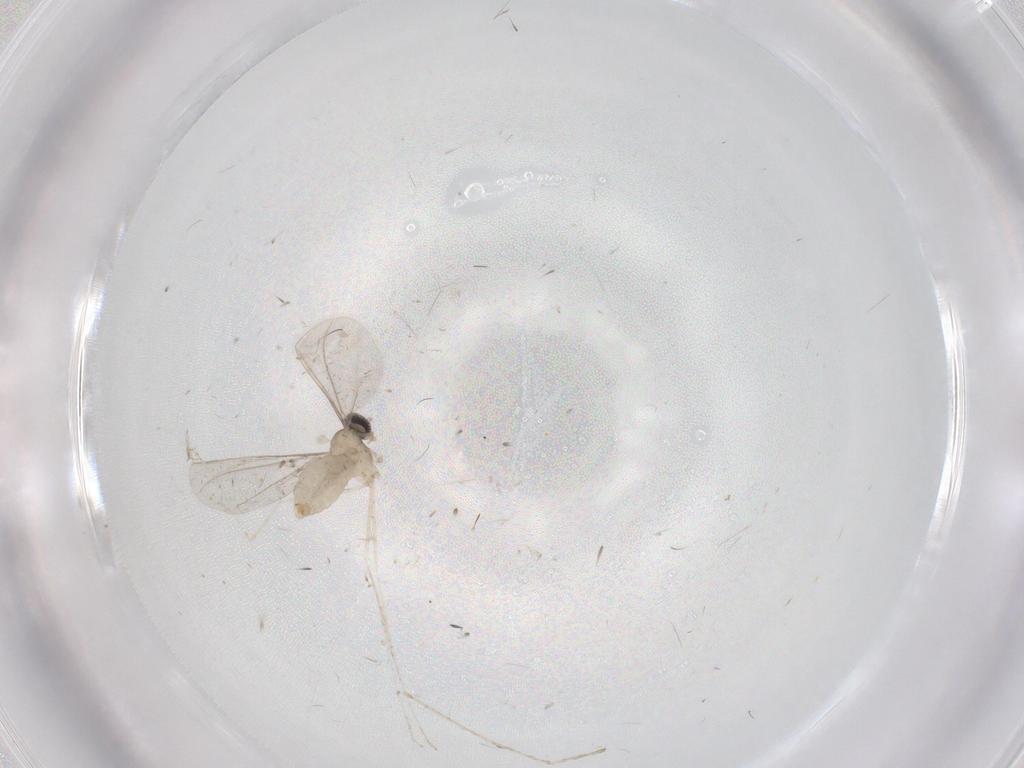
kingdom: Animalia
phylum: Arthropoda
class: Insecta
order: Diptera
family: Cecidomyiidae
